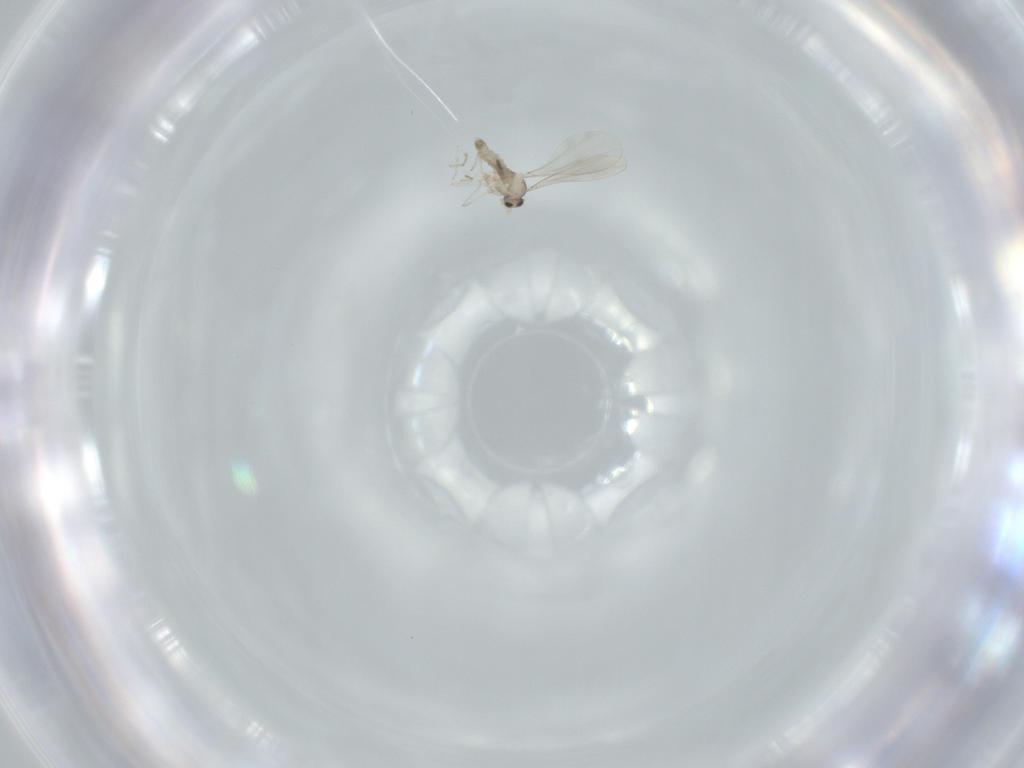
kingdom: Animalia
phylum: Arthropoda
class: Insecta
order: Diptera
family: Cecidomyiidae
